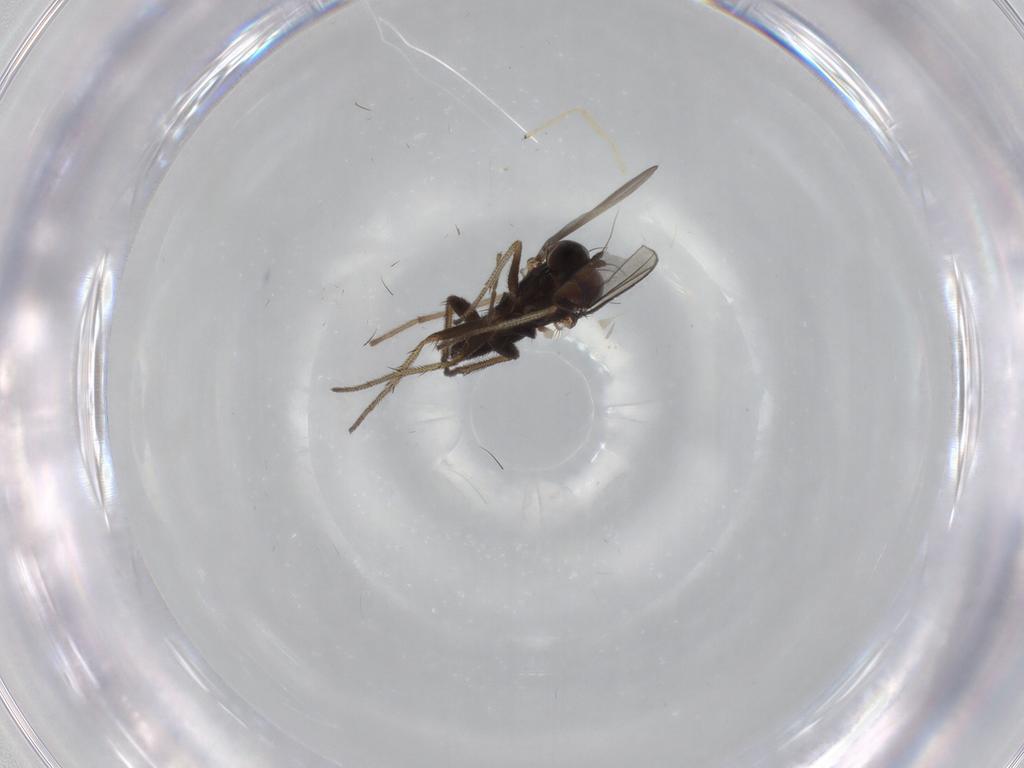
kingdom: Animalia
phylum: Arthropoda
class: Insecta
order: Diptera
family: Dolichopodidae
